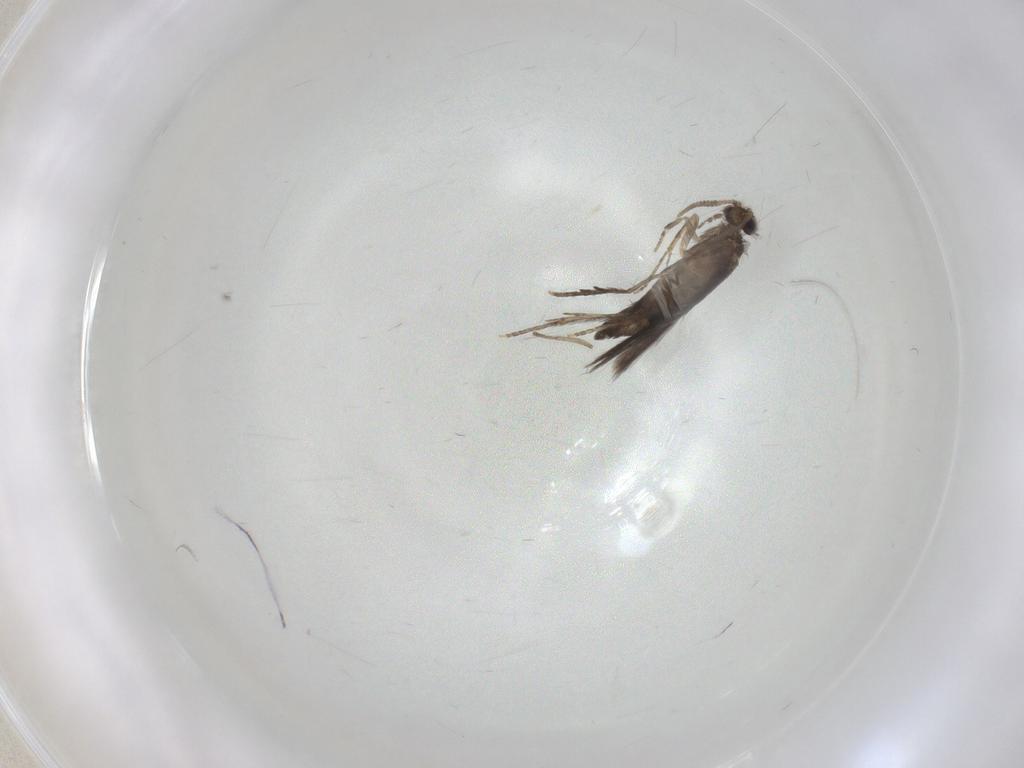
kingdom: Animalia
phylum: Arthropoda
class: Insecta
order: Trichoptera
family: Hydroptilidae
